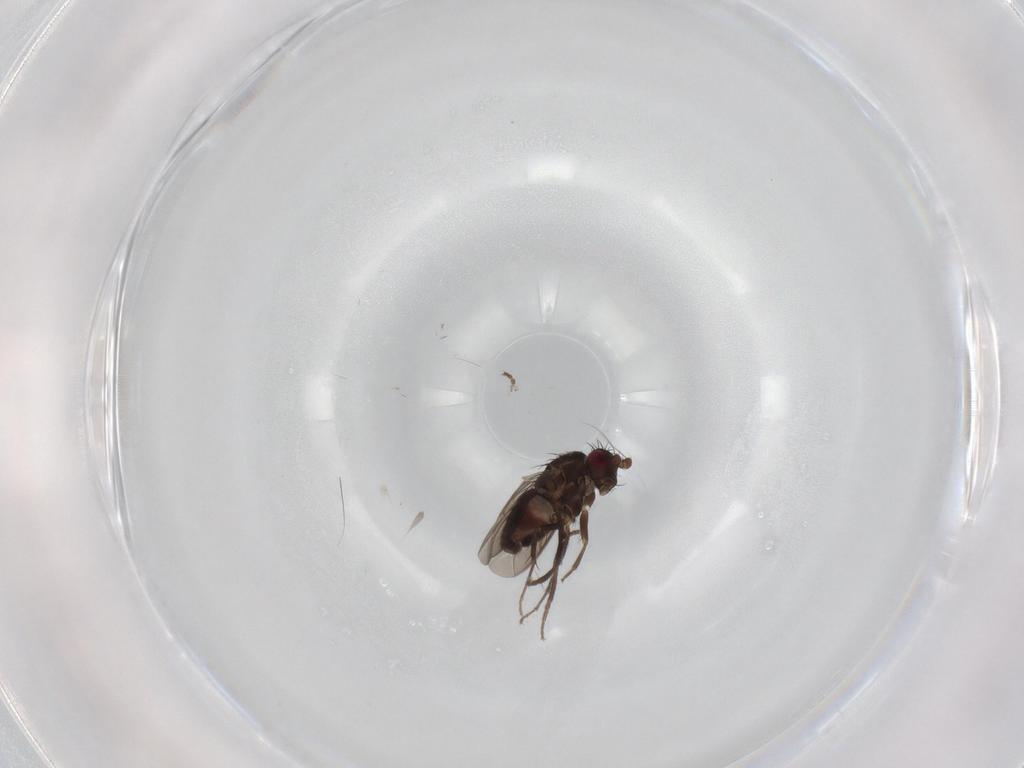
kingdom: Animalia
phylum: Arthropoda
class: Insecta
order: Diptera
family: Sphaeroceridae
